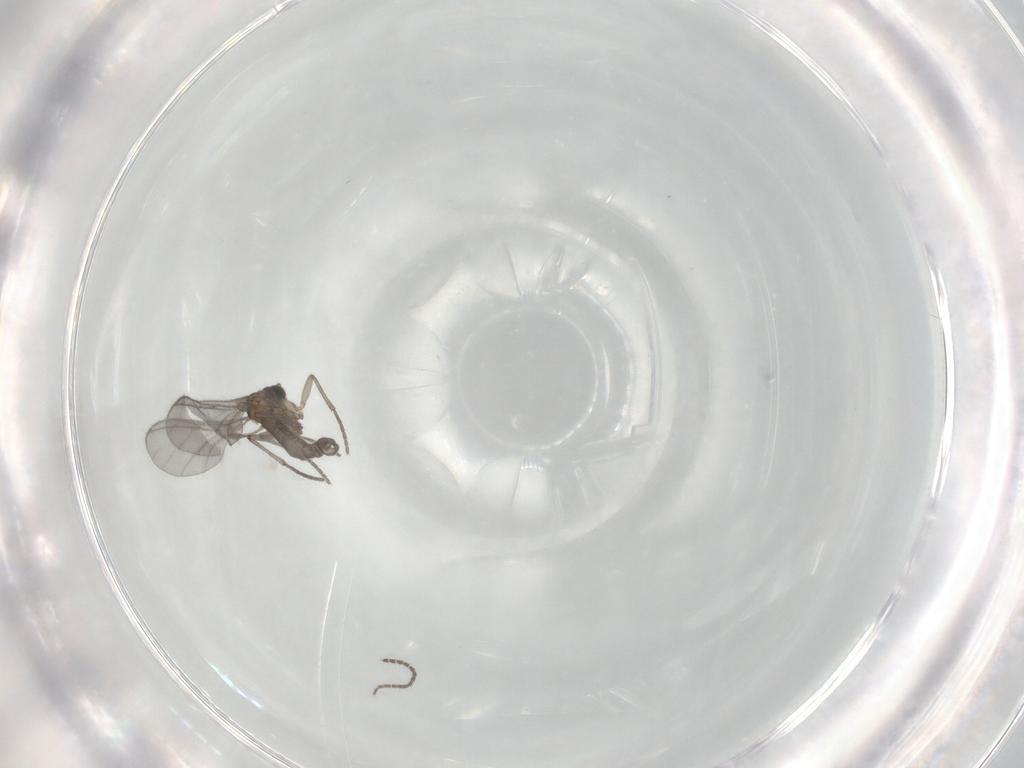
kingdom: Animalia
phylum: Arthropoda
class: Insecta
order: Diptera
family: Sciaridae
